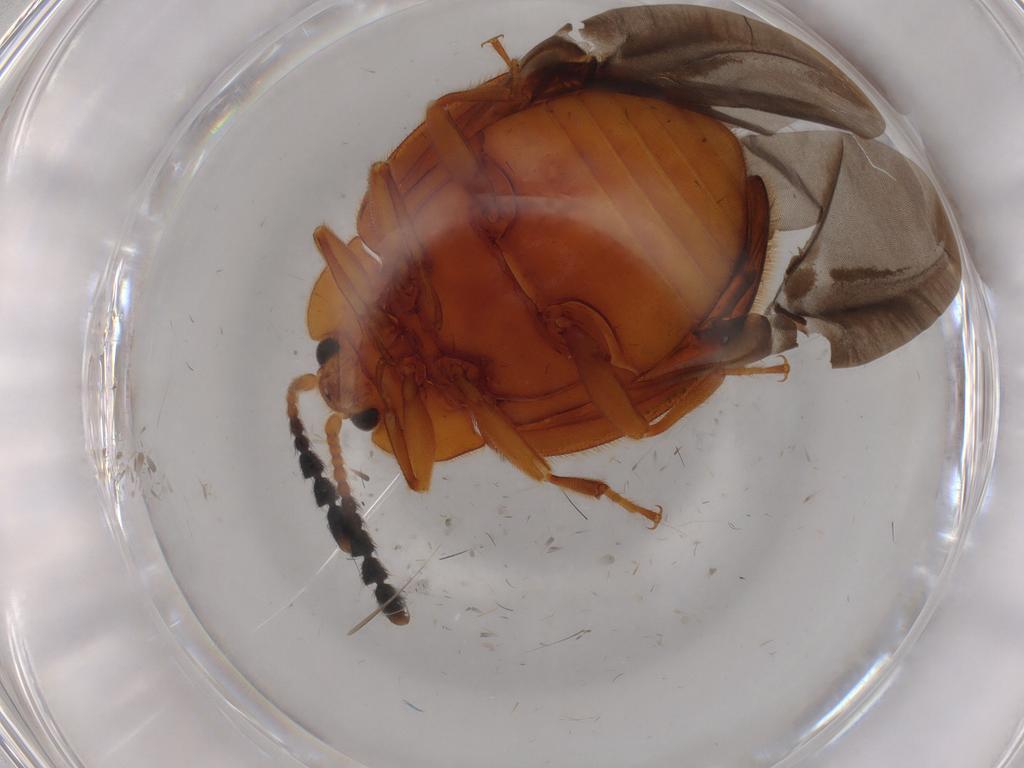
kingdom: Animalia
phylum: Arthropoda
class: Insecta
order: Coleoptera
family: Endomychidae
